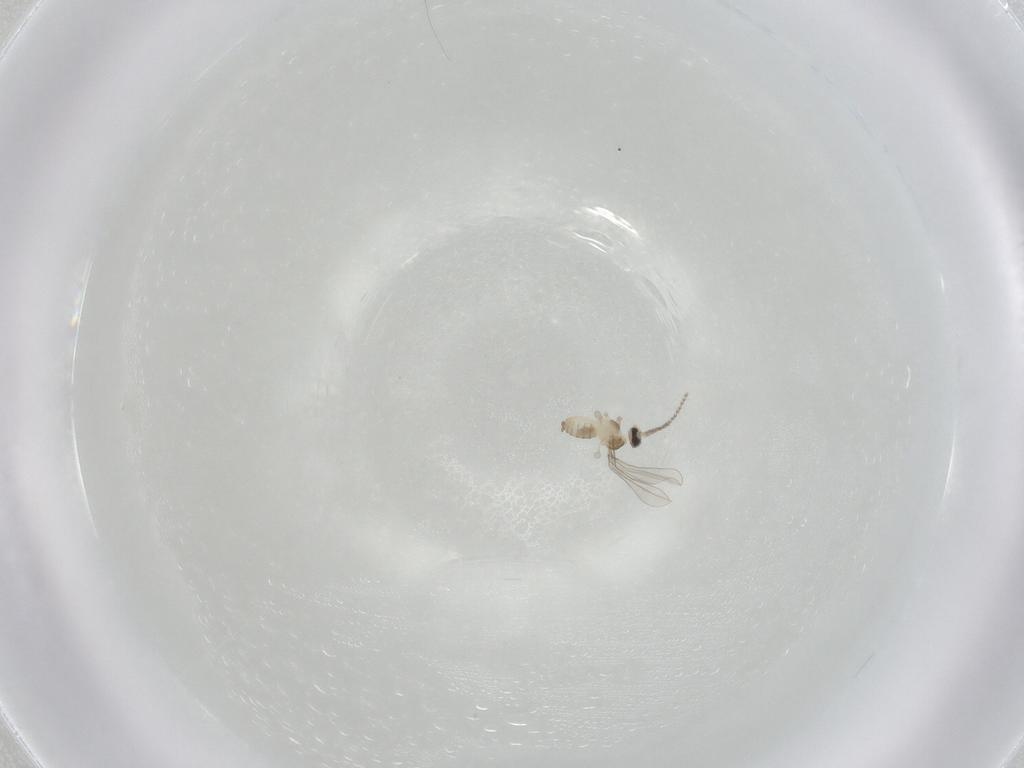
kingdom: Animalia
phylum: Arthropoda
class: Insecta
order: Diptera
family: Cecidomyiidae
